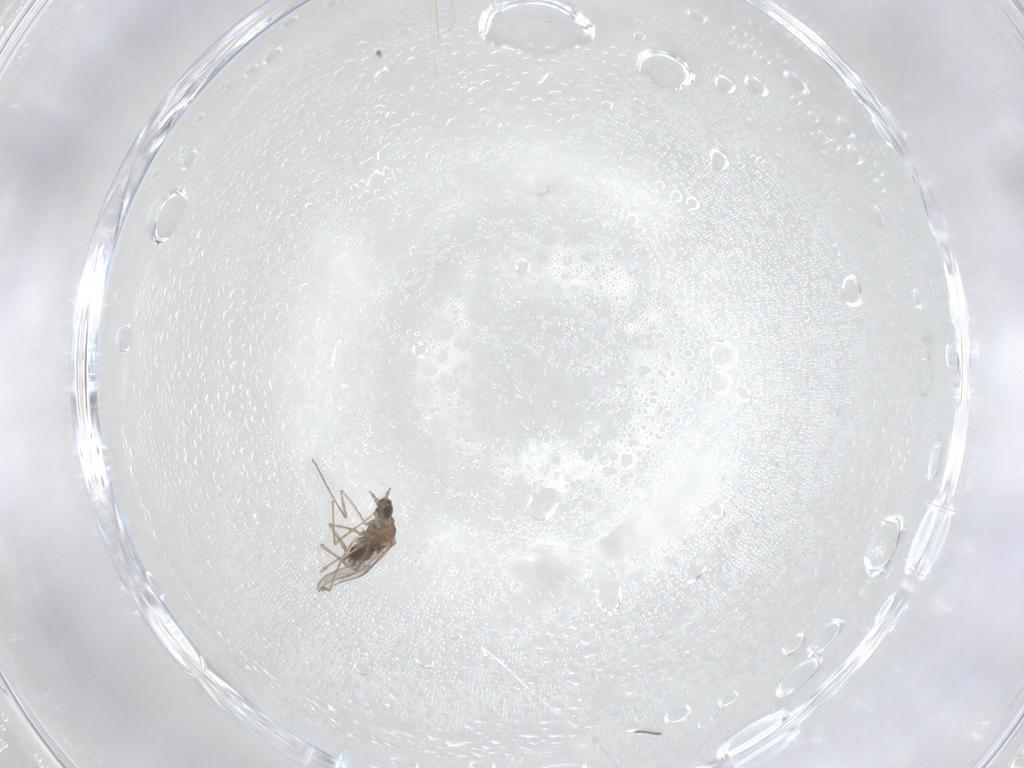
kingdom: Animalia
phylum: Arthropoda
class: Insecta
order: Diptera
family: Cecidomyiidae
